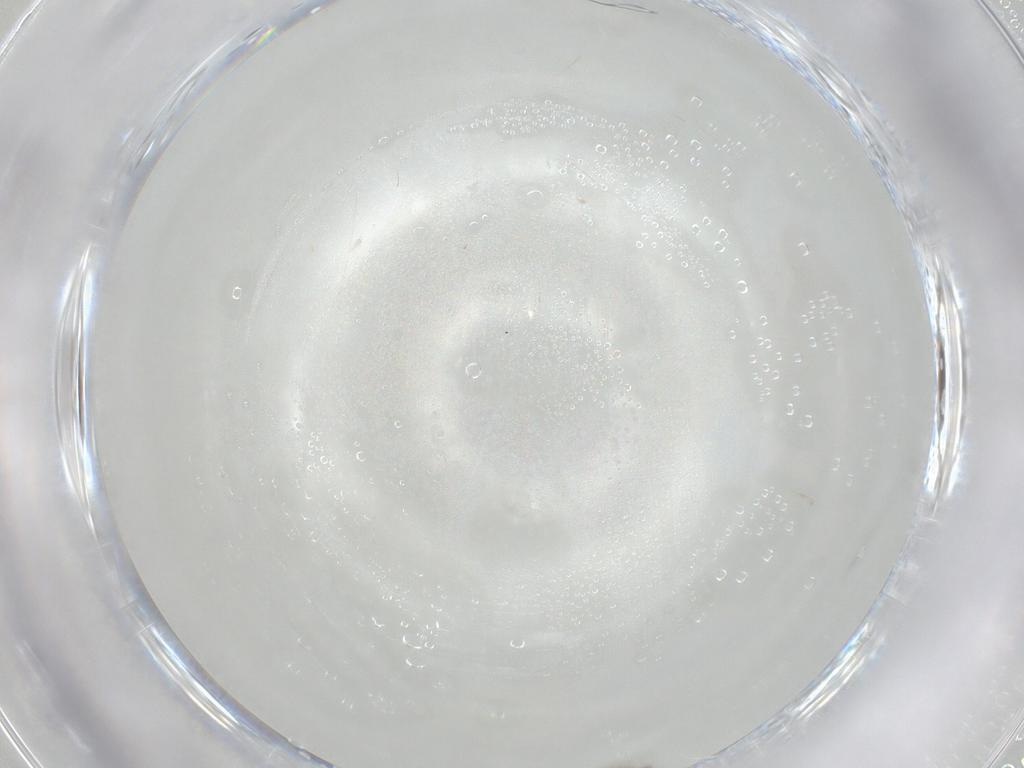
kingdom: Animalia
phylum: Arthropoda
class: Insecta
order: Hymenoptera
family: Eulophidae
